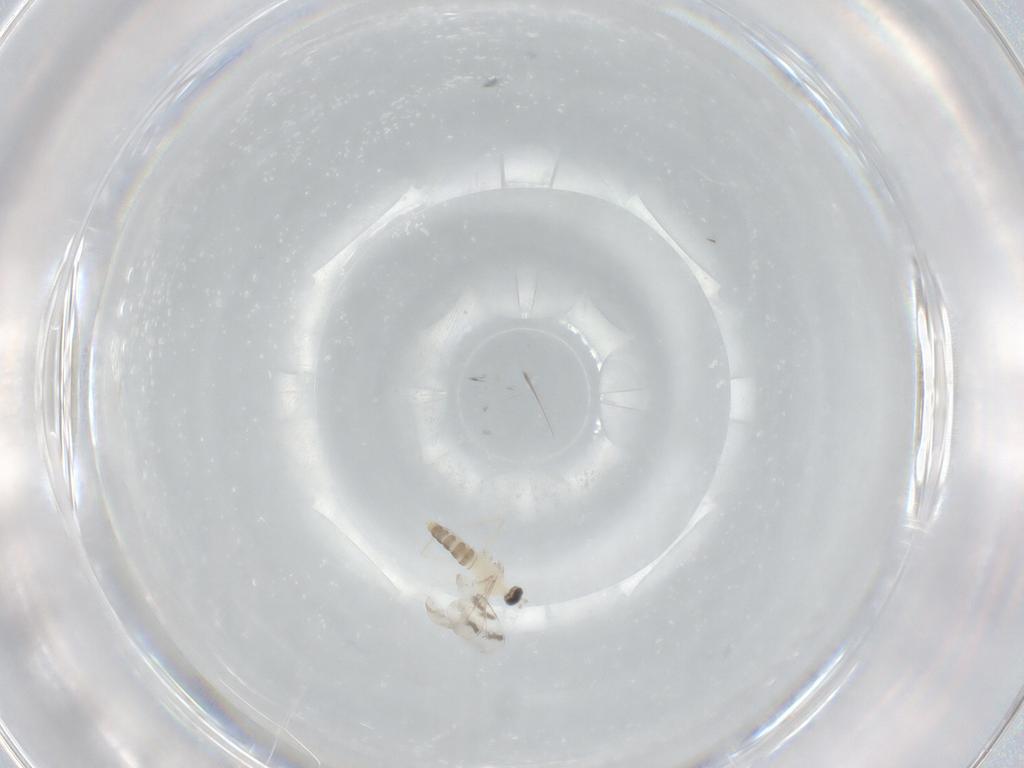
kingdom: Animalia
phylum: Arthropoda
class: Insecta
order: Diptera
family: Cecidomyiidae
